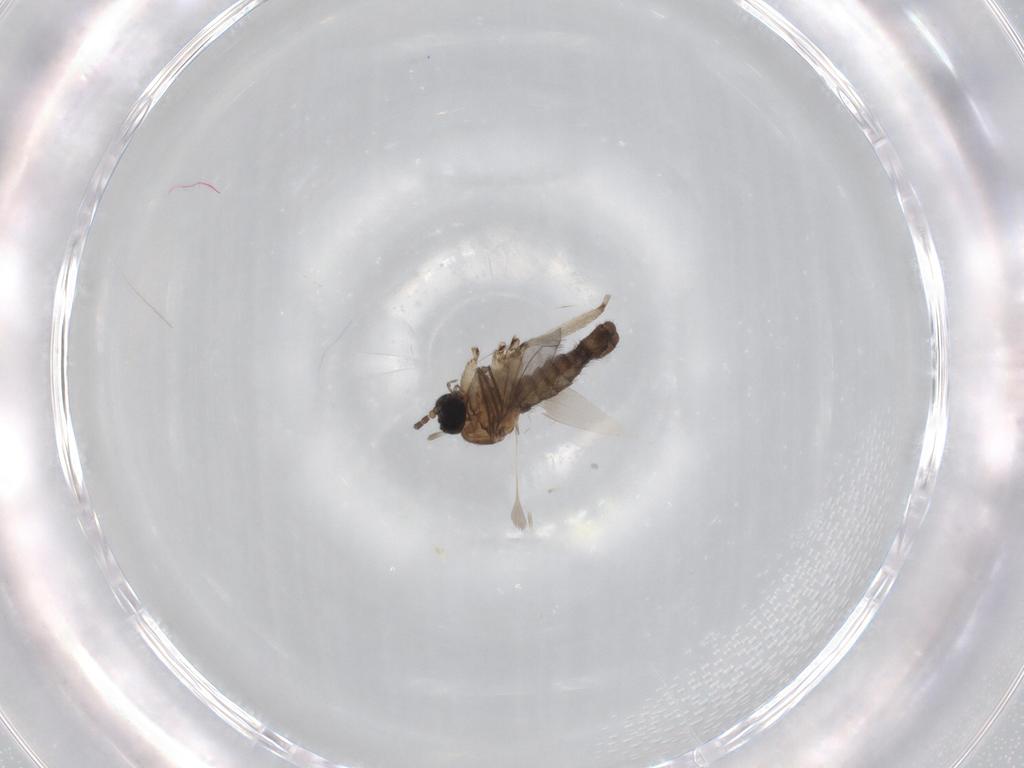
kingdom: Animalia
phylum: Arthropoda
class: Insecta
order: Diptera
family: Sciaridae
